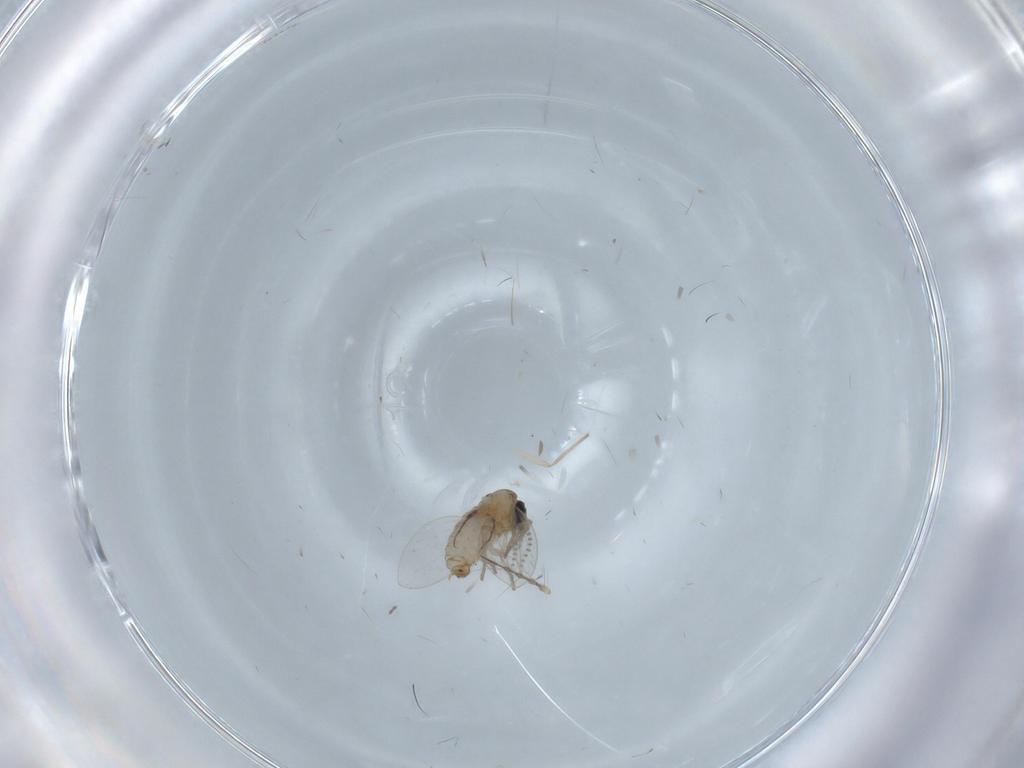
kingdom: Animalia
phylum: Arthropoda
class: Insecta
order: Diptera
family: Psychodidae
